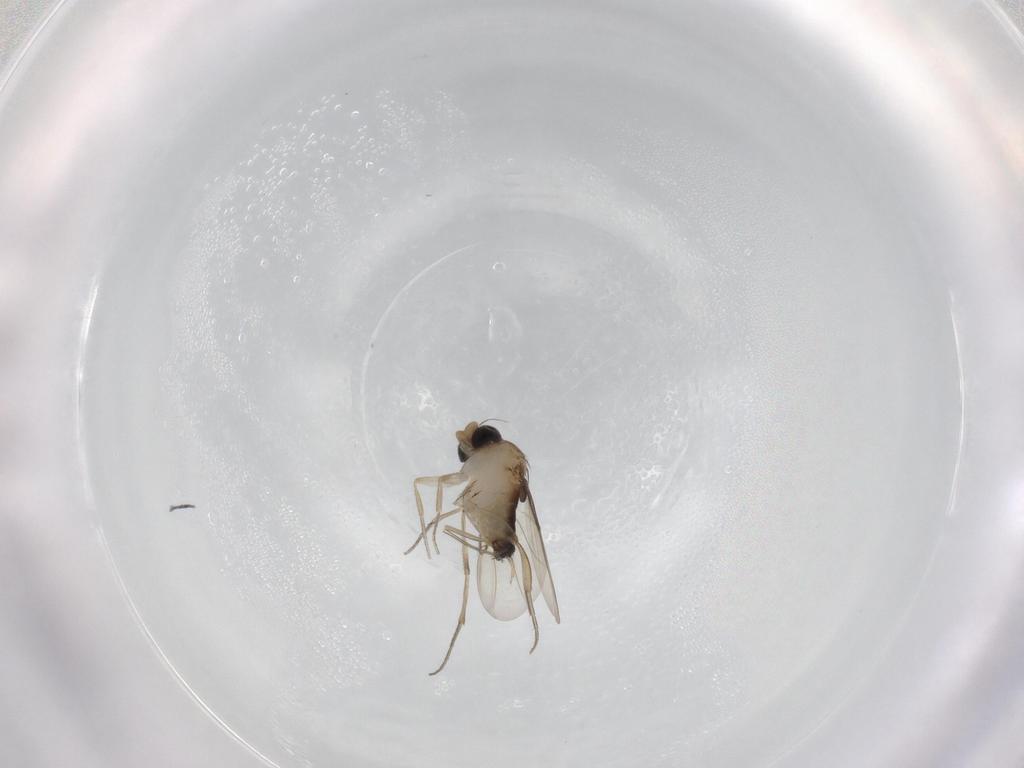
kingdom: Animalia
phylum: Arthropoda
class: Insecta
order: Diptera
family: Phoridae
